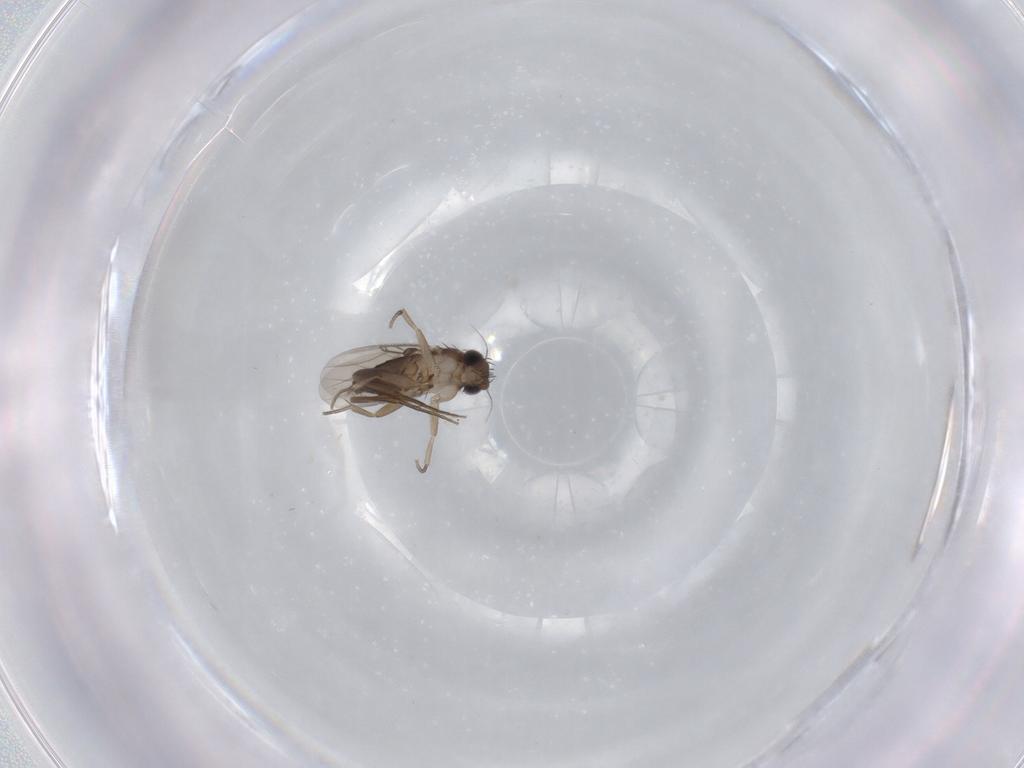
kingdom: Animalia
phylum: Arthropoda
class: Insecta
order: Diptera
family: Phoridae
